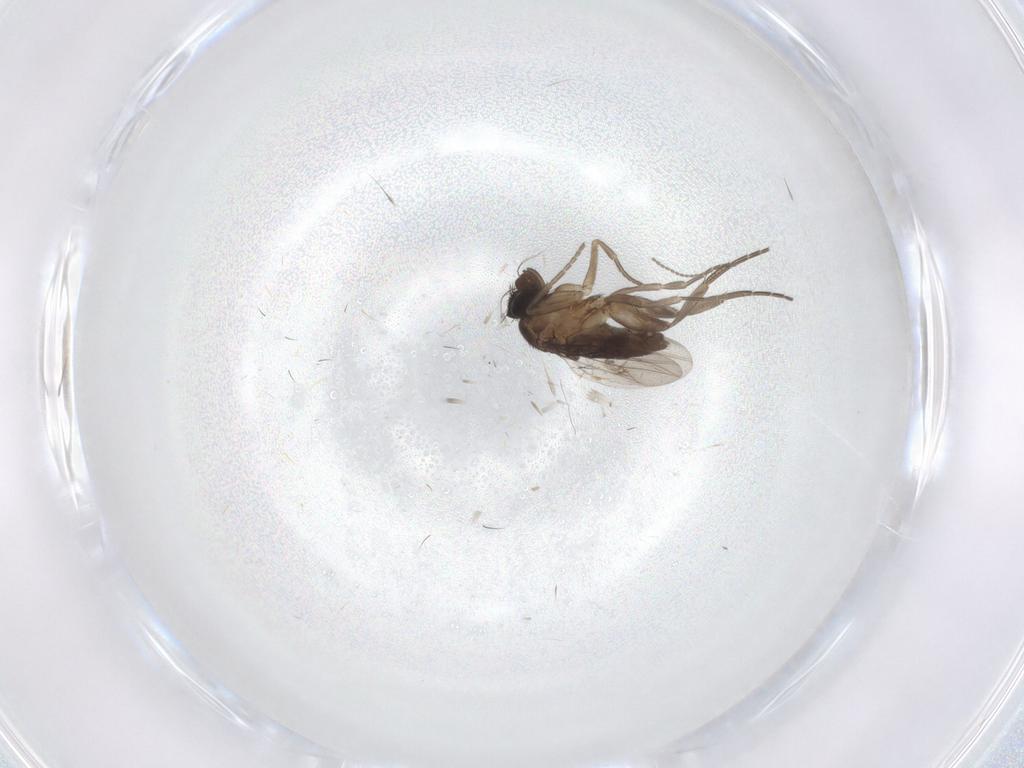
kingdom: Animalia
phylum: Arthropoda
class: Insecta
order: Diptera
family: Phoridae
